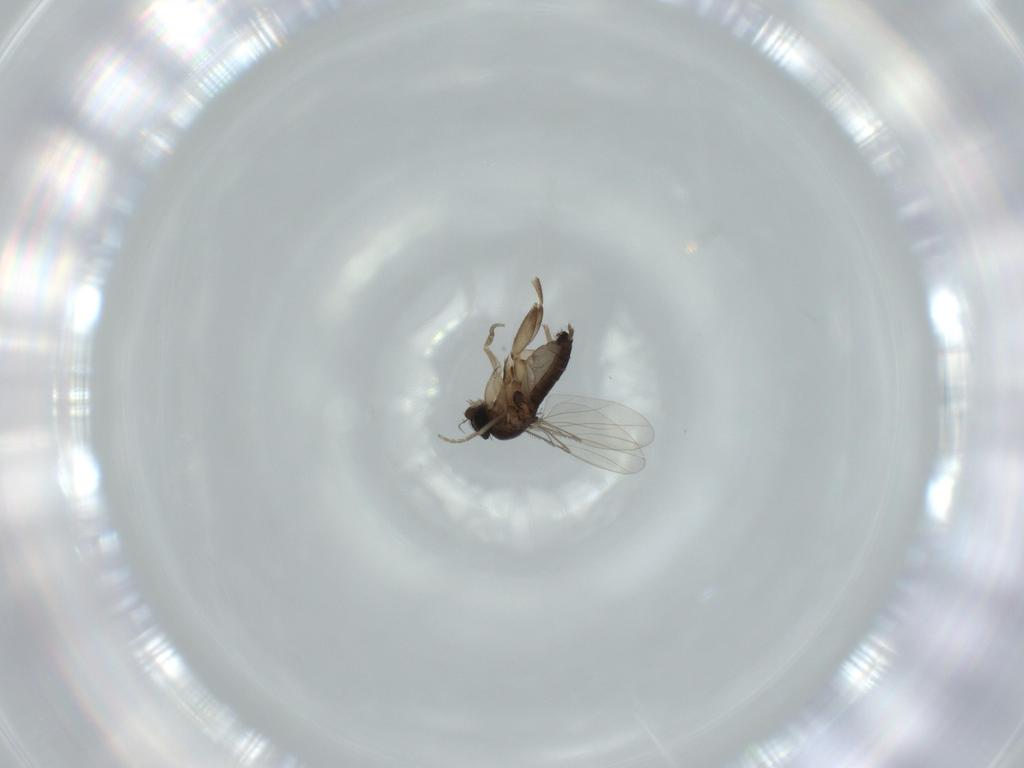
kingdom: Animalia
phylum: Arthropoda
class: Insecta
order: Diptera
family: Phoridae
